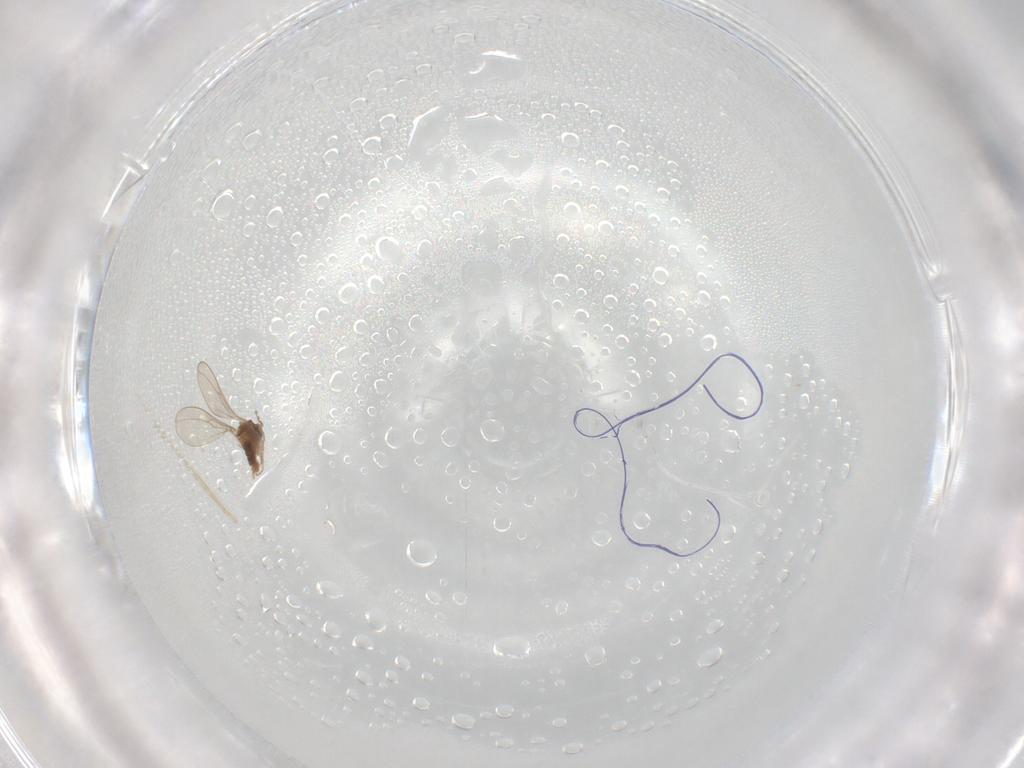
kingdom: Animalia
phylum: Arthropoda
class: Insecta
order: Diptera
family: Cecidomyiidae
